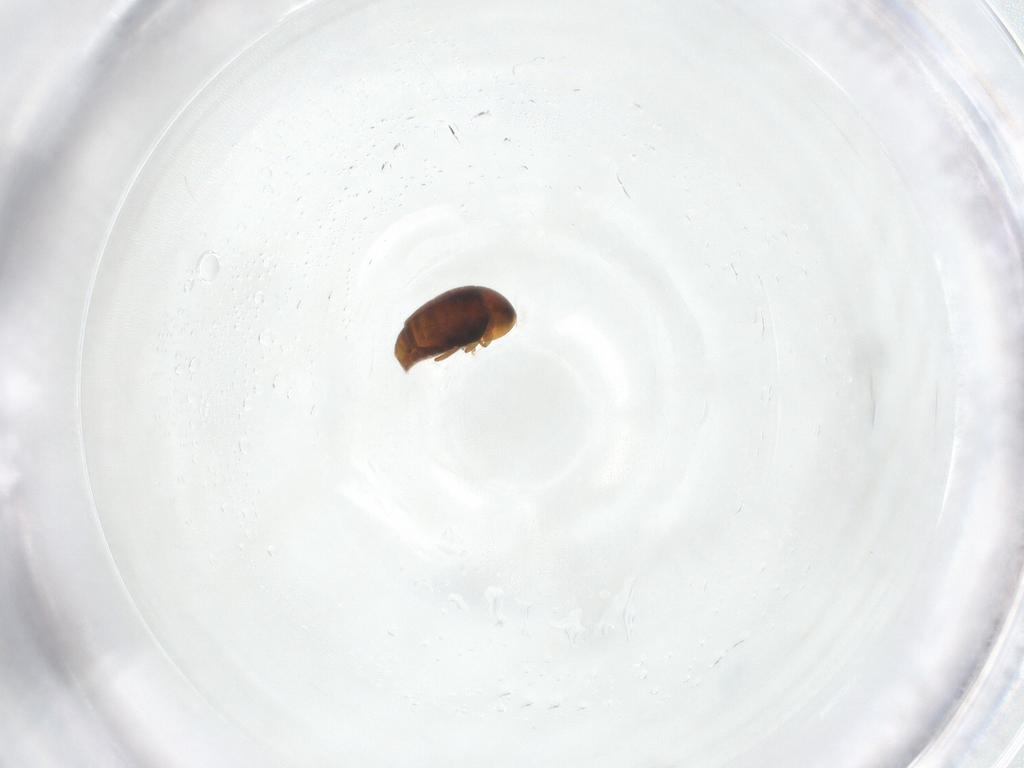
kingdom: Animalia
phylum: Arthropoda
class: Insecta
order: Coleoptera
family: Corylophidae
